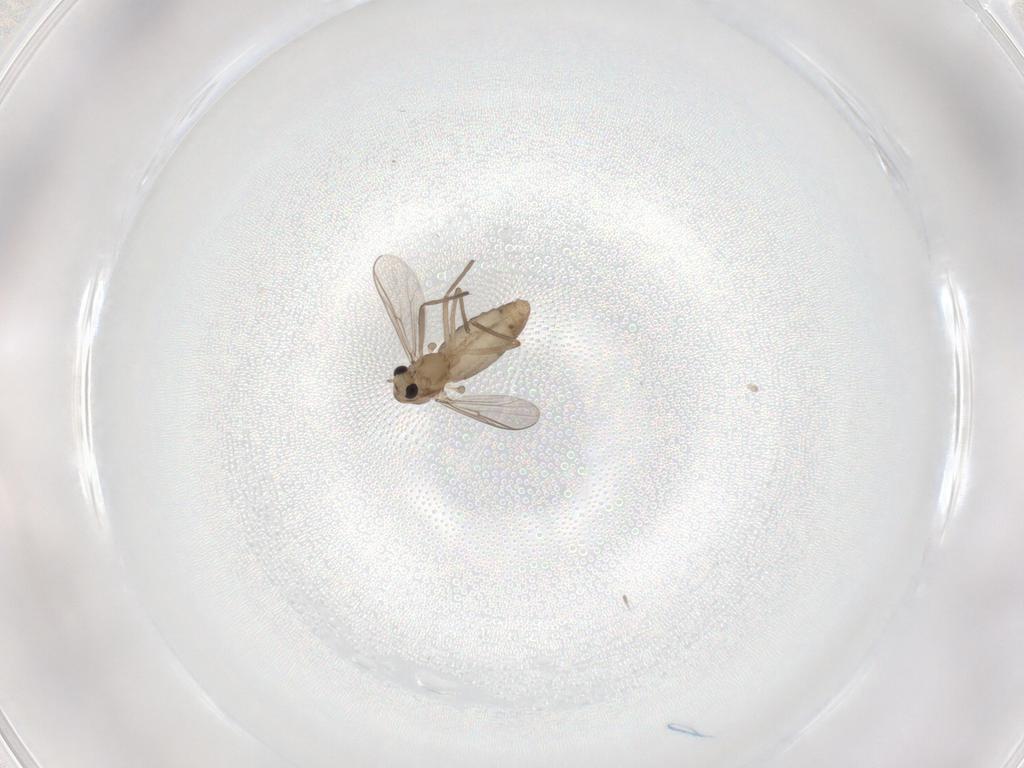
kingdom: Animalia
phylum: Arthropoda
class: Insecta
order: Diptera
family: Chironomidae
